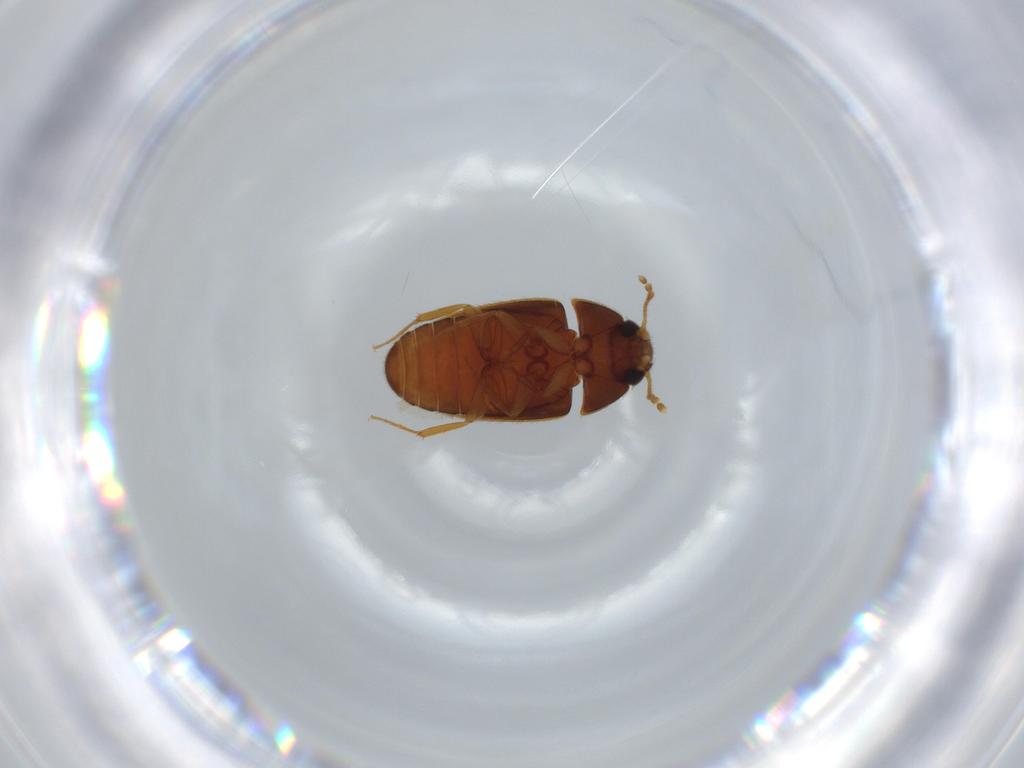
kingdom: Animalia
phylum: Arthropoda
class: Insecta
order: Coleoptera
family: Mycetophagidae
